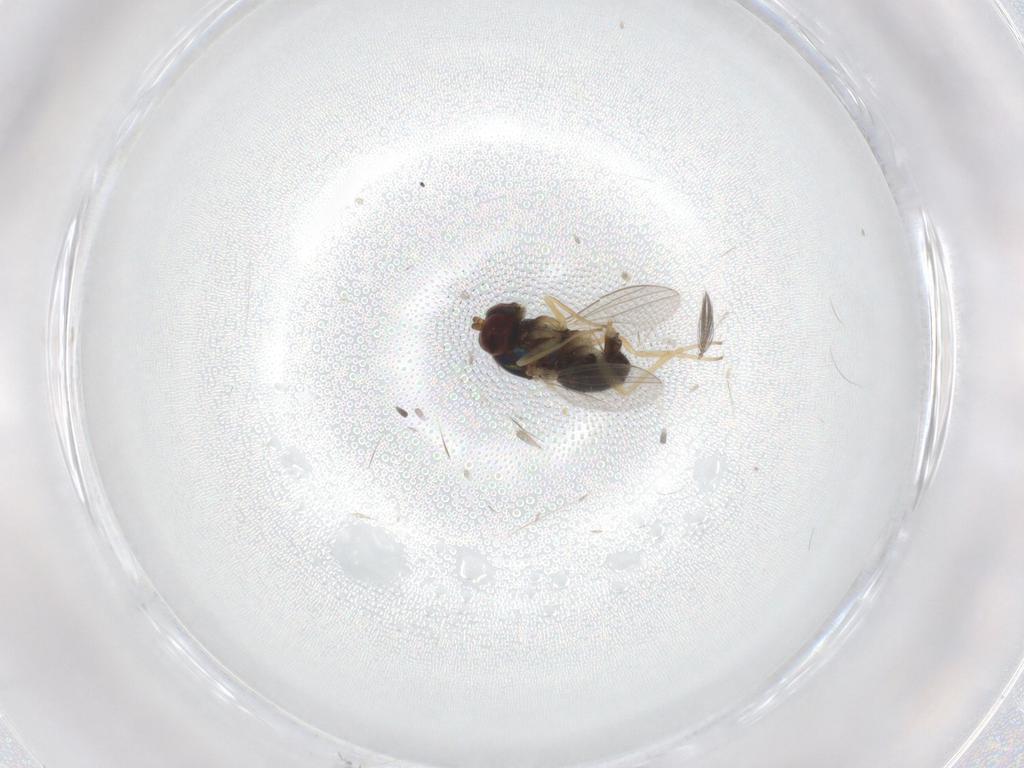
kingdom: Animalia
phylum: Arthropoda
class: Insecta
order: Diptera
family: Dolichopodidae
